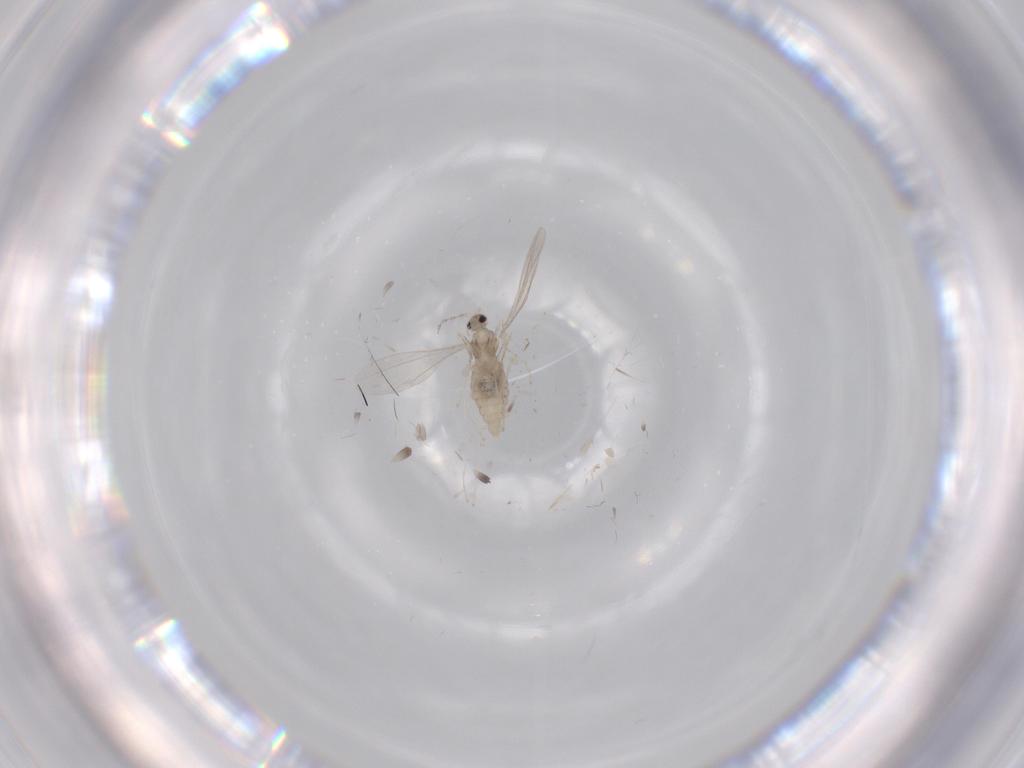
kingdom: Animalia
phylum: Arthropoda
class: Insecta
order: Diptera
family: Cecidomyiidae
